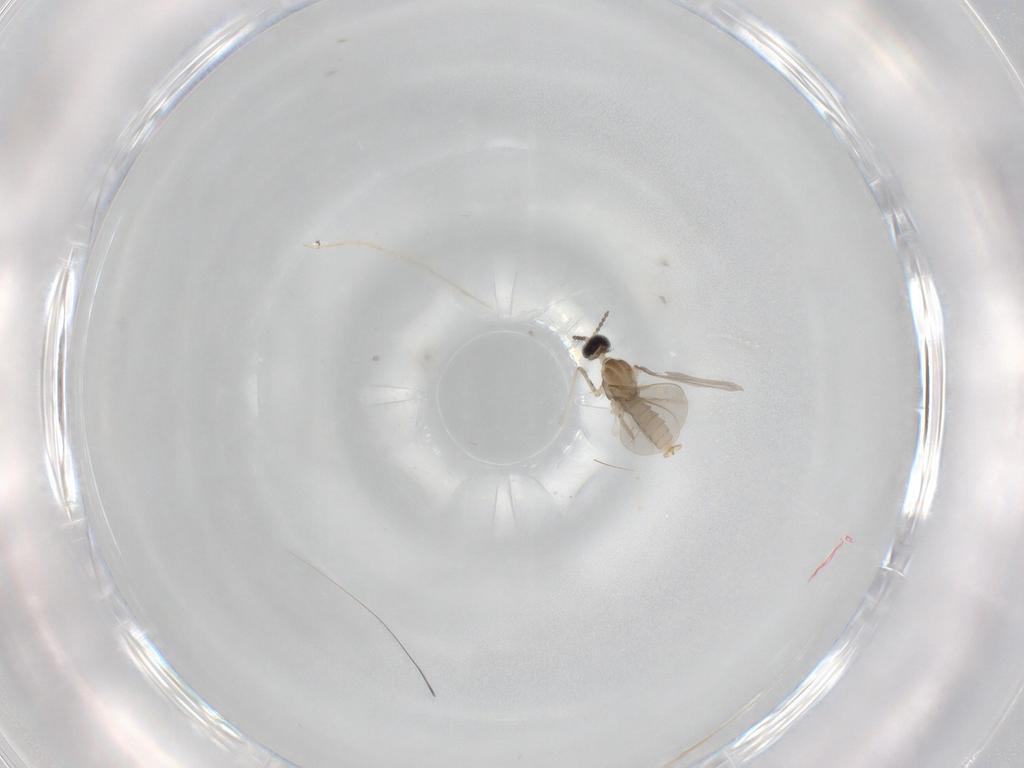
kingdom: Animalia
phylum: Arthropoda
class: Insecta
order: Diptera
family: Cecidomyiidae
